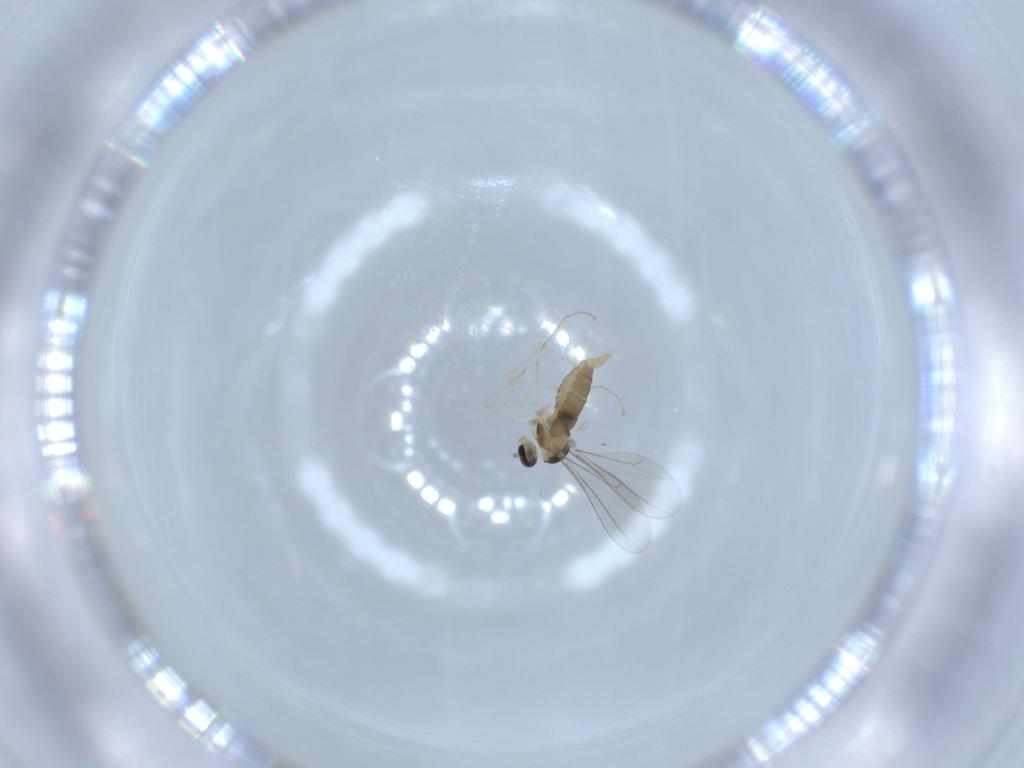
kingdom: Animalia
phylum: Arthropoda
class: Insecta
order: Diptera
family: Cecidomyiidae
